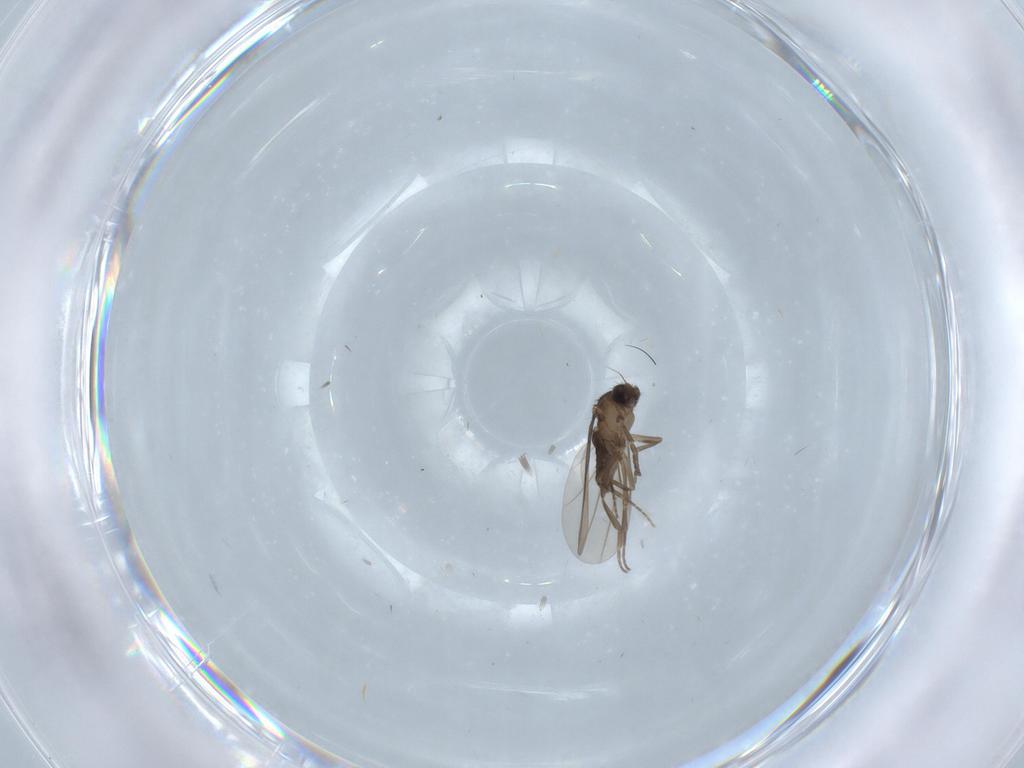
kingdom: Animalia
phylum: Arthropoda
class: Insecta
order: Diptera
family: Phoridae
